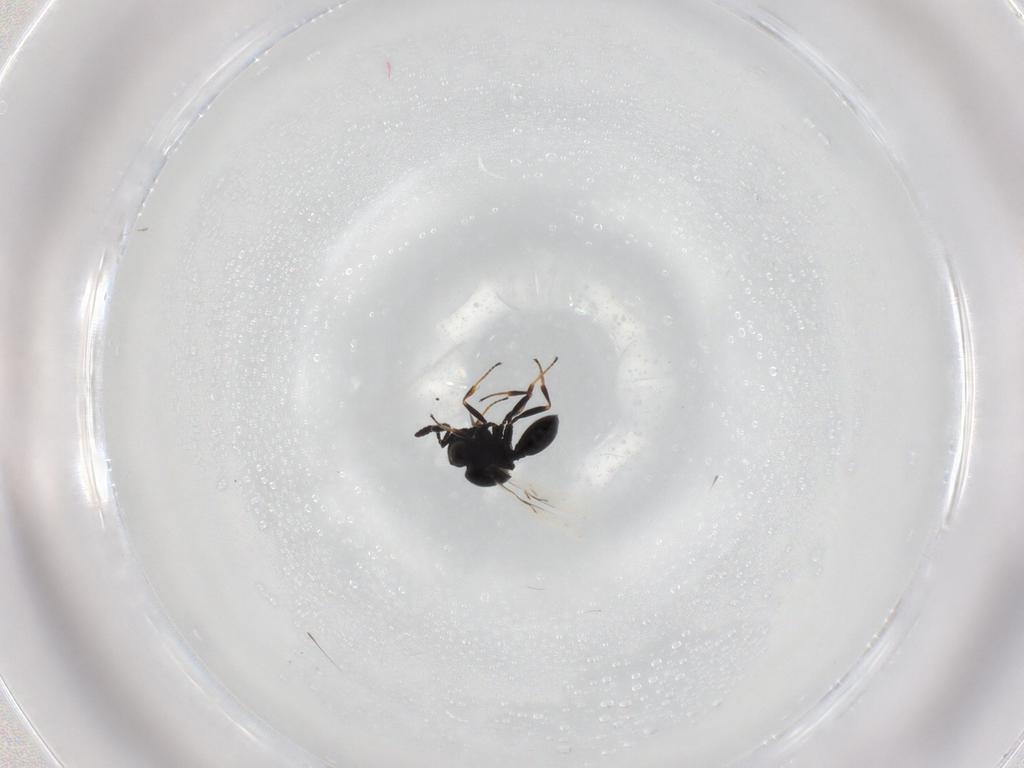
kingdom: Animalia
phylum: Arthropoda
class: Insecta
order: Hymenoptera
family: Scelionidae
